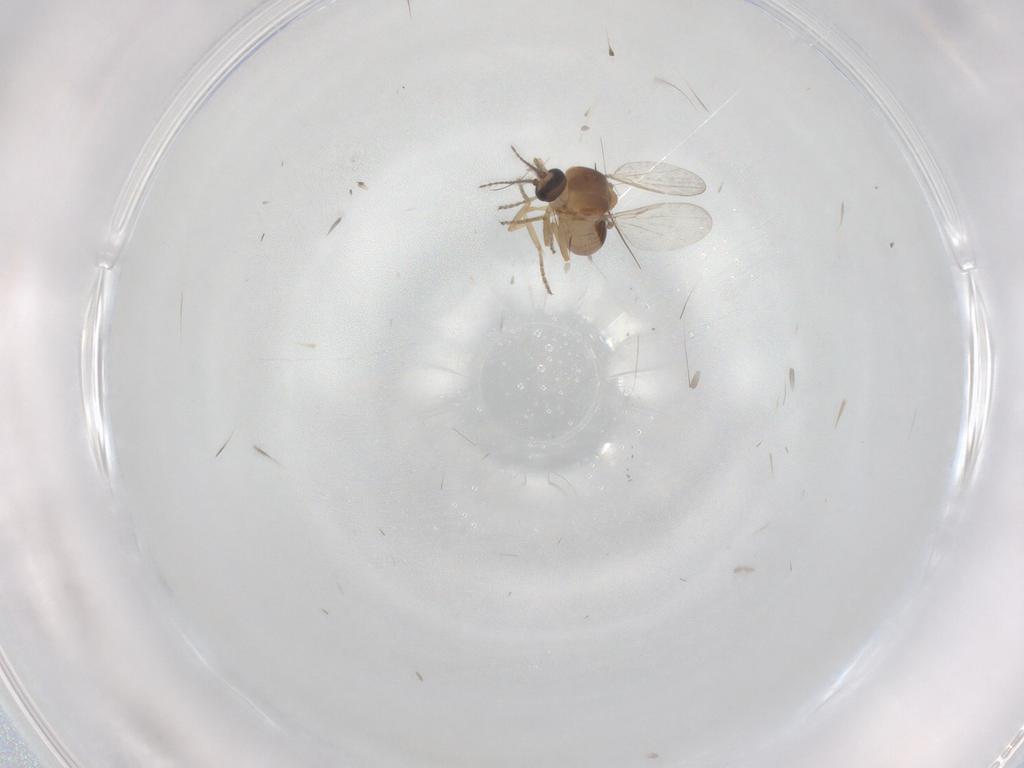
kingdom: Animalia
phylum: Arthropoda
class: Insecta
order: Diptera
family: Ceratopogonidae
